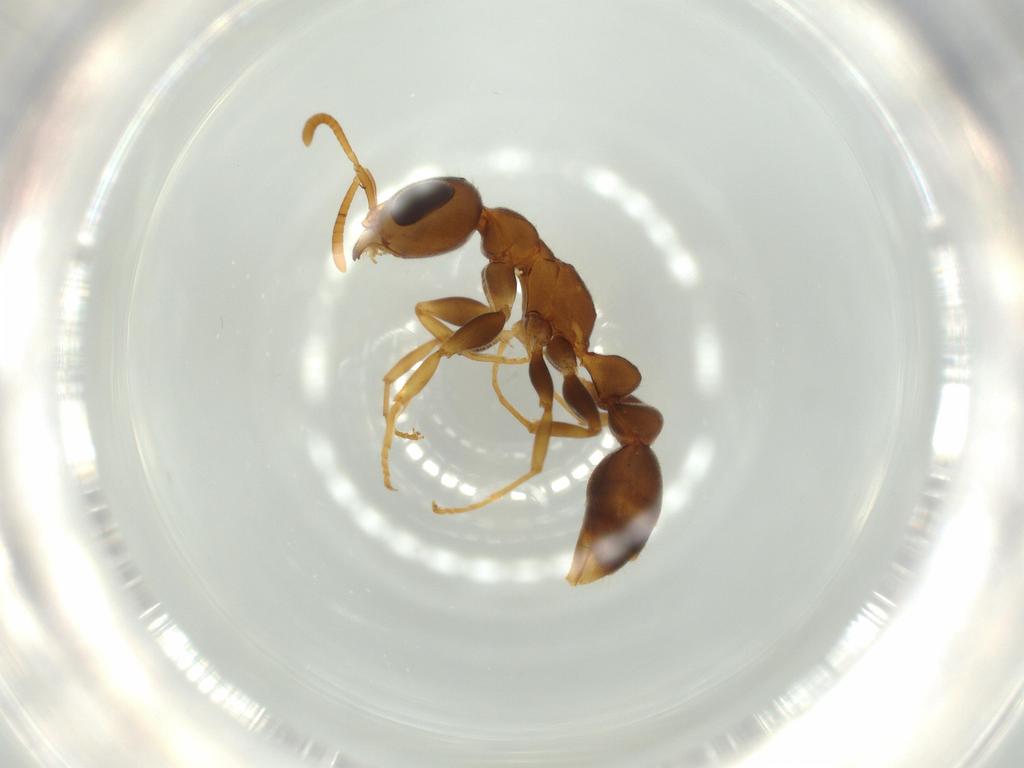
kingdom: Animalia
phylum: Arthropoda
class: Insecta
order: Hymenoptera
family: Formicidae
